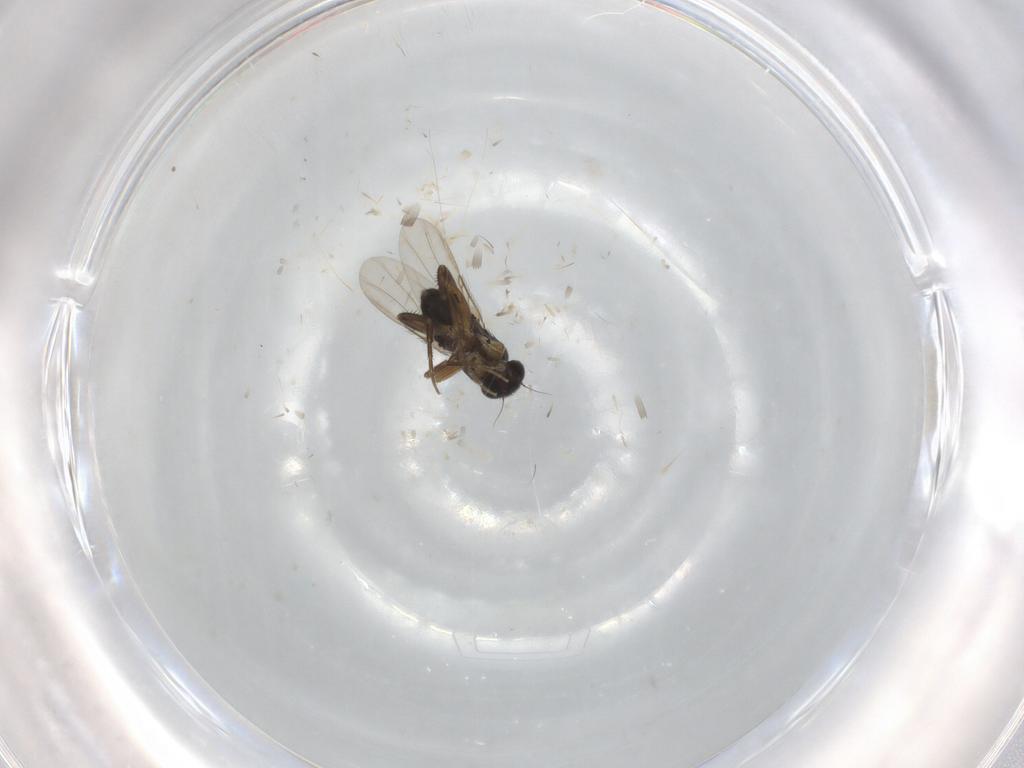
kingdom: Animalia
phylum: Arthropoda
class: Insecta
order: Diptera
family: Phoridae
